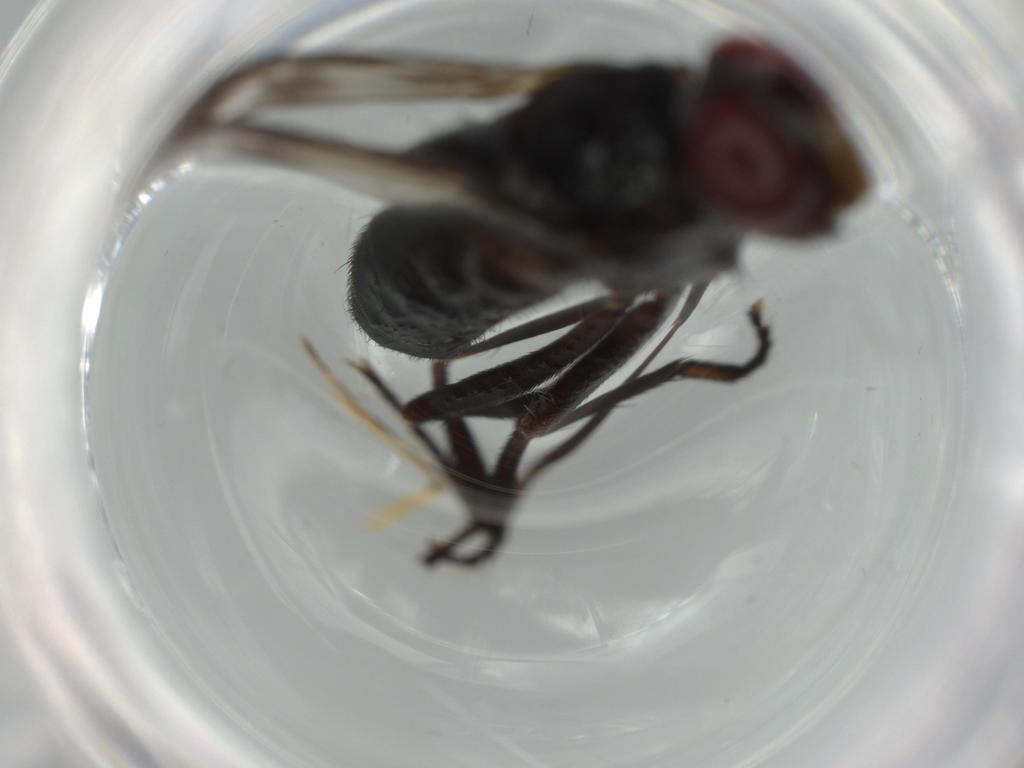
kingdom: Animalia
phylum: Arthropoda
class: Insecta
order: Diptera
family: Calliphoridae
